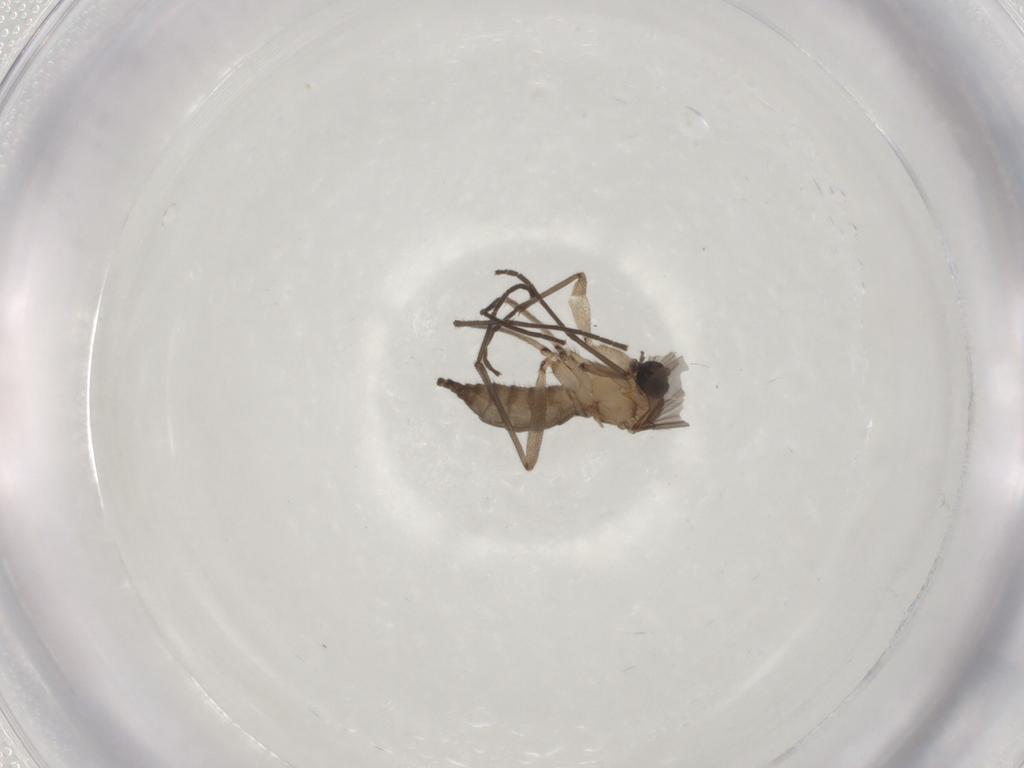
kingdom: Animalia
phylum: Arthropoda
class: Insecta
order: Diptera
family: Sciaridae
